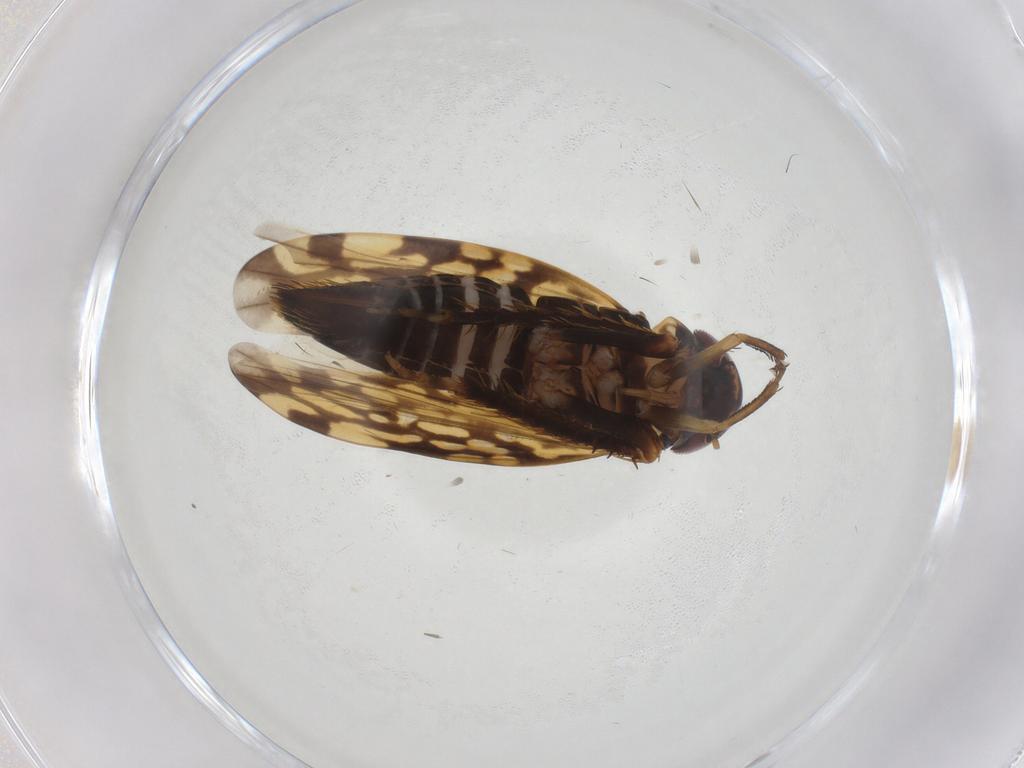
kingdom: Animalia
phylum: Arthropoda
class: Insecta
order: Hemiptera
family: Cicadellidae
